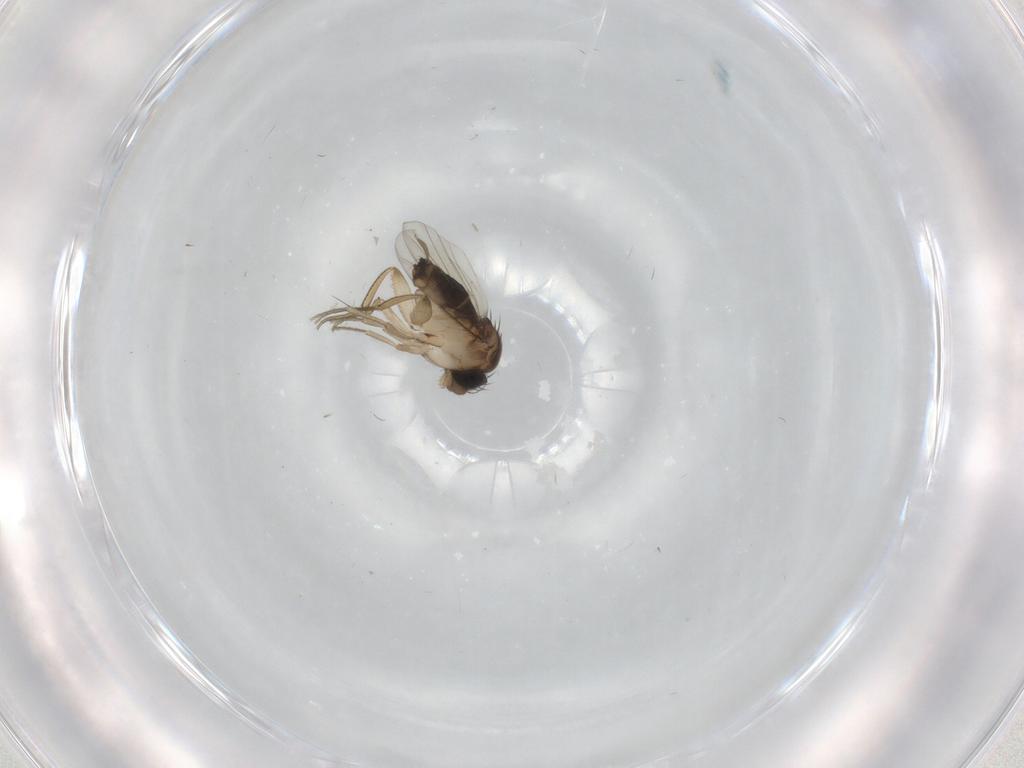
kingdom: Animalia
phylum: Arthropoda
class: Insecta
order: Diptera
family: Phoridae
